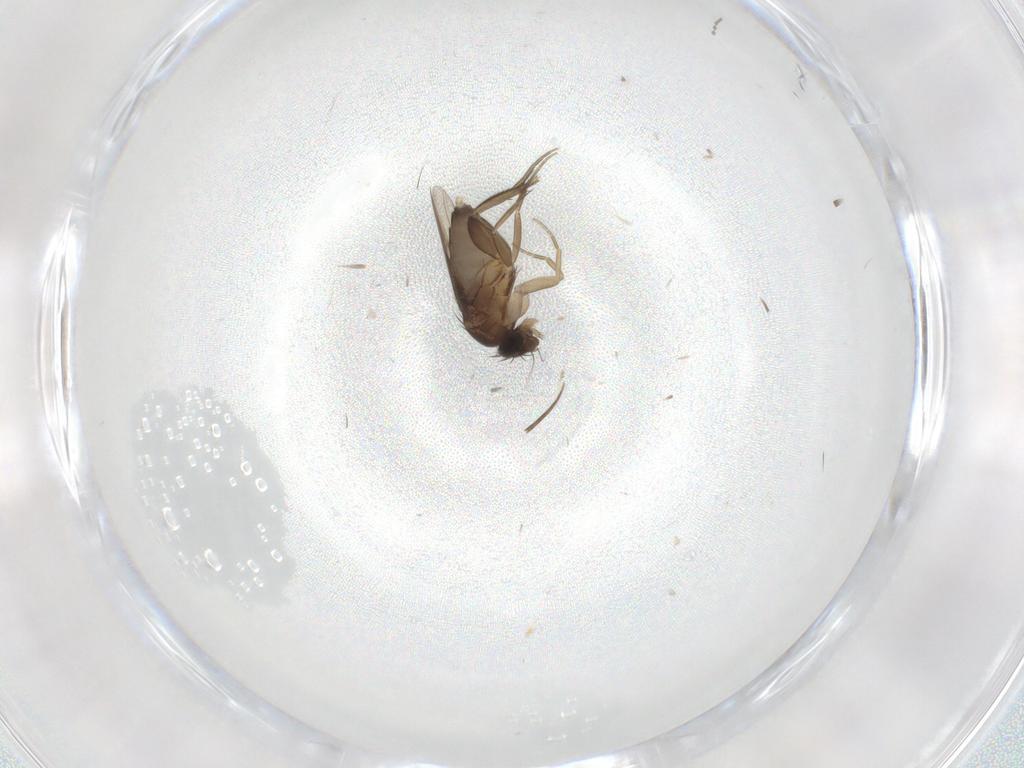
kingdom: Animalia
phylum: Arthropoda
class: Insecta
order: Diptera
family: Phoridae
